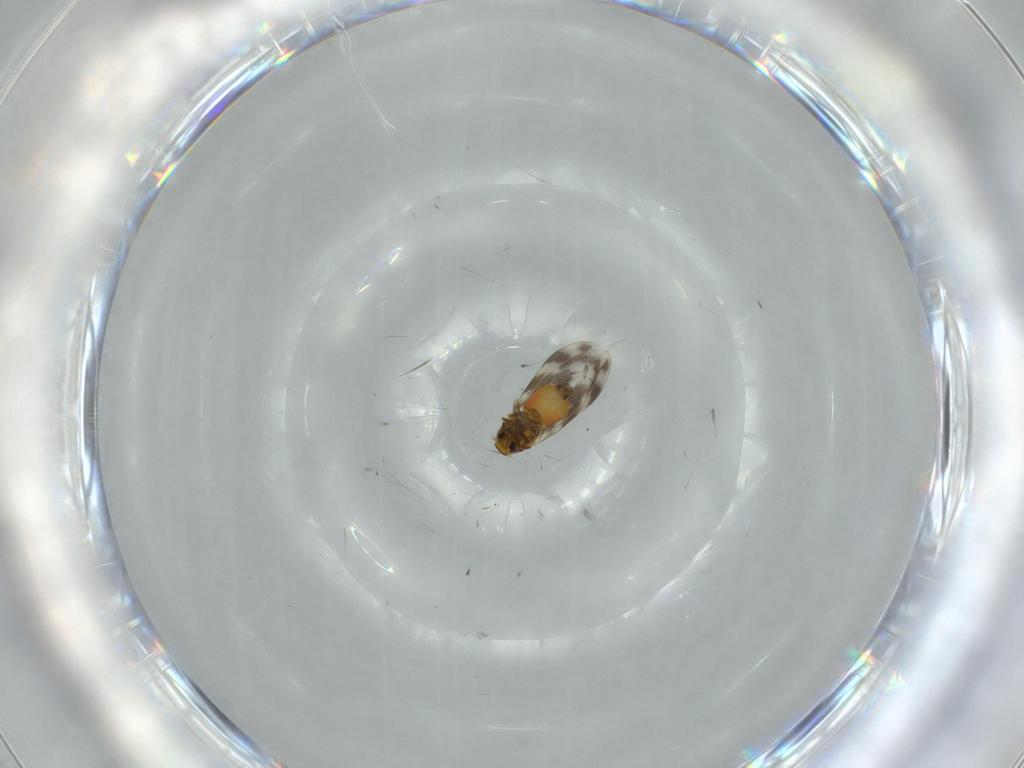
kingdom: Animalia
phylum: Arthropoda
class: Insecta
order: Hemiptera
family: Aleyrodidae
